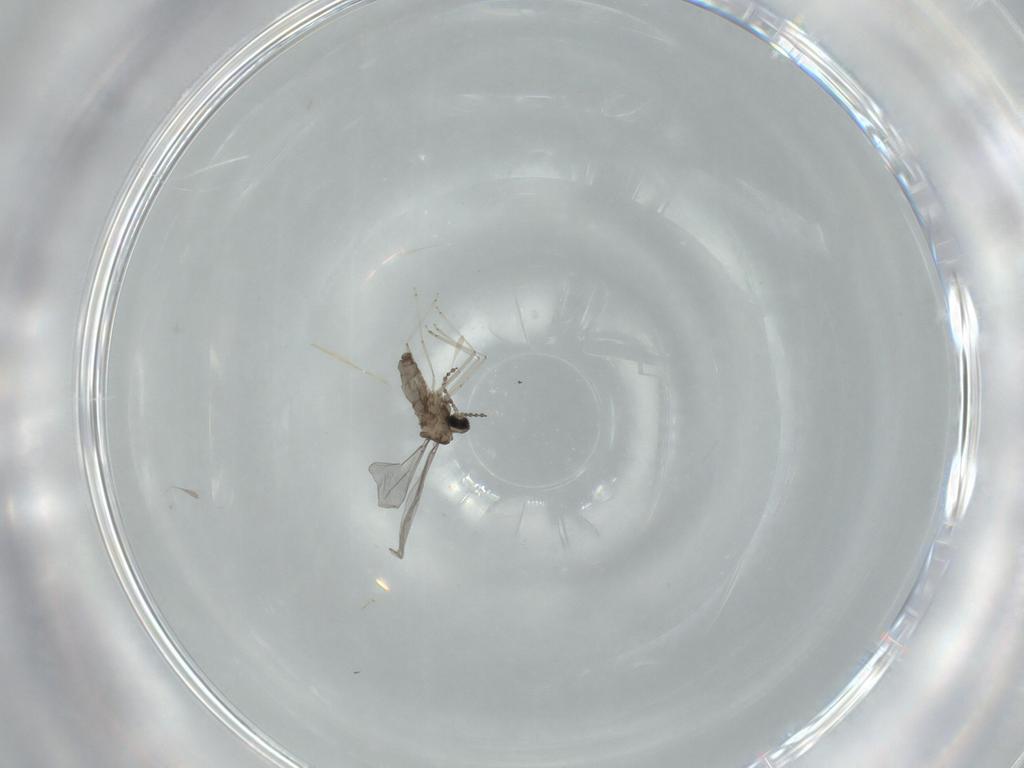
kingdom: Animalia
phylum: Arthropoda
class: Insecta
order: Diptera
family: Cecidomyiidae
